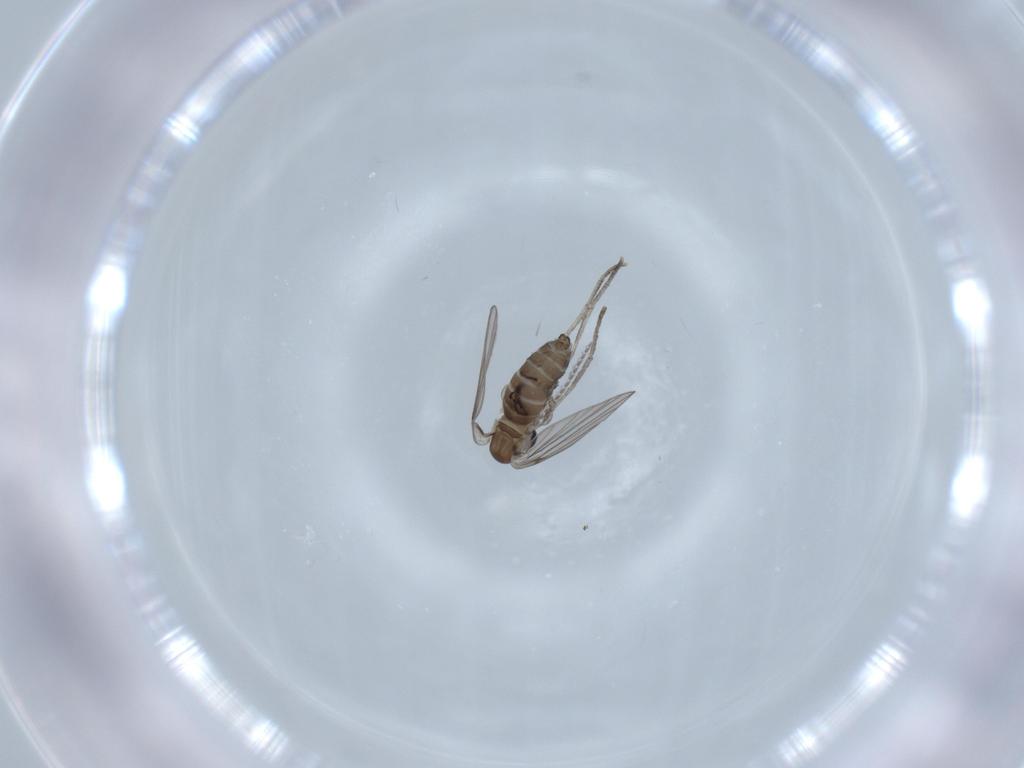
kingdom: Animalia
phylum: Arthropoda
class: Insecta
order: Diptera
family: Psychodidae
